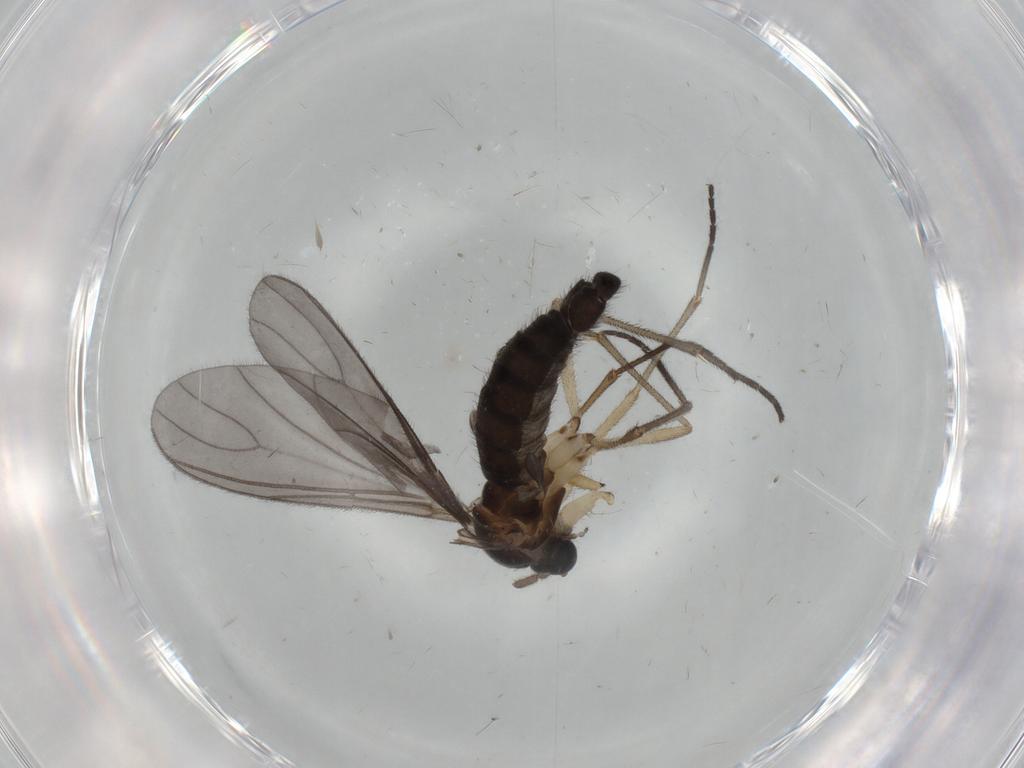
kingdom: Animalia
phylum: Arthropoda
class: Insecta
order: Diptera
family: Sciaridae
